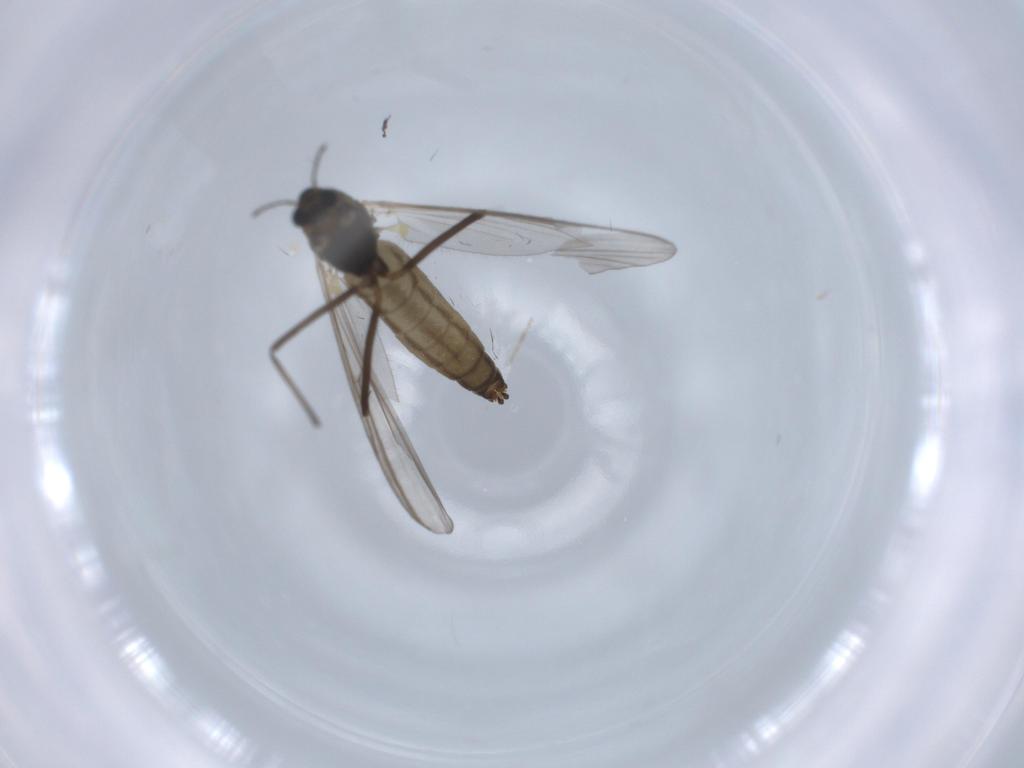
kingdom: Animalia
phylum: Arthropoda
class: Insecta
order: Diptera
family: Chironomidae
